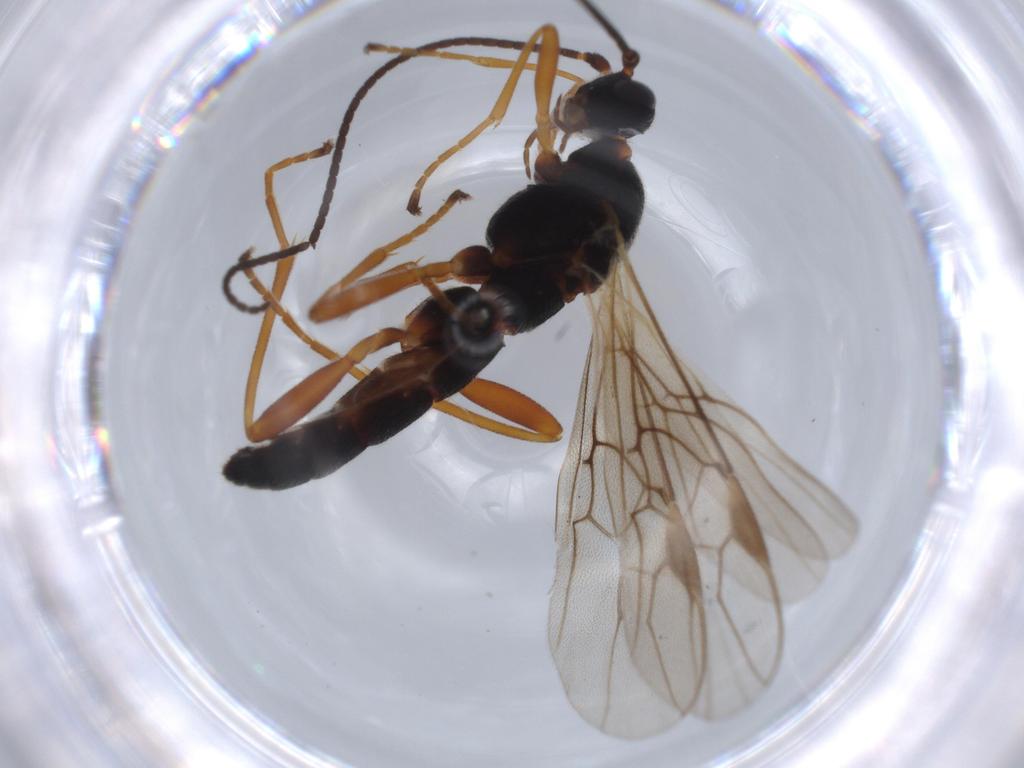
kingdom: Animalia
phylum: Arthropoda
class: Insecta
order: Hymenoptera
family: Braconidae
